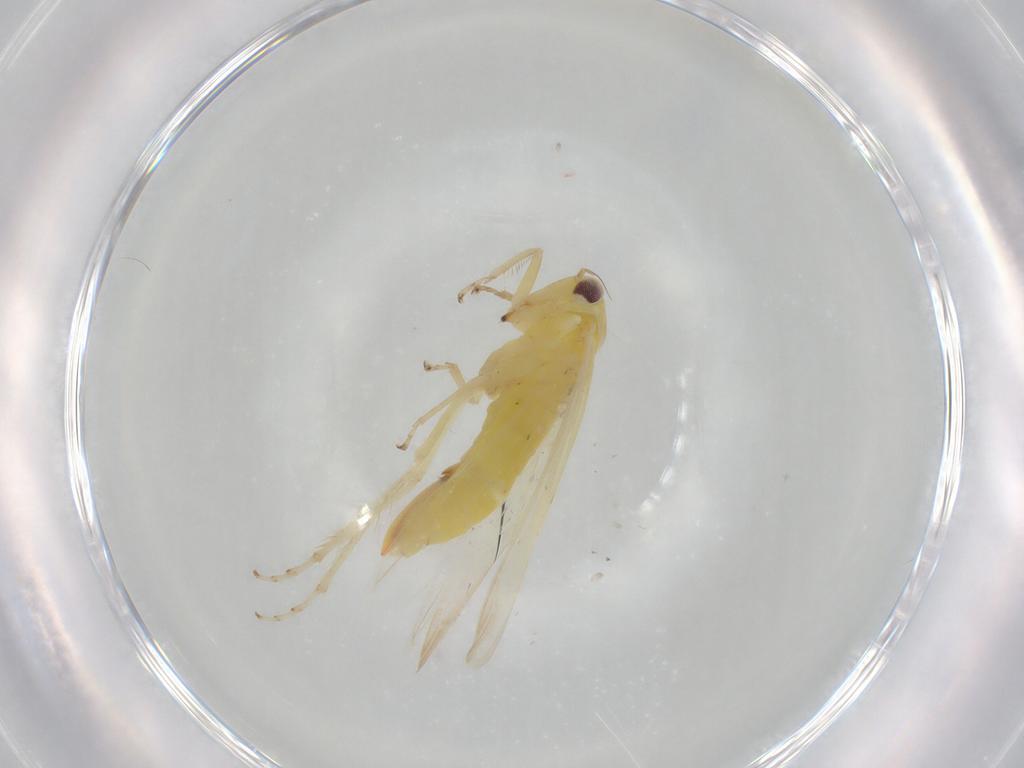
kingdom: Animalia
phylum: Arthropoda
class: Insecta
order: Hemiptera
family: Cicadellidae
